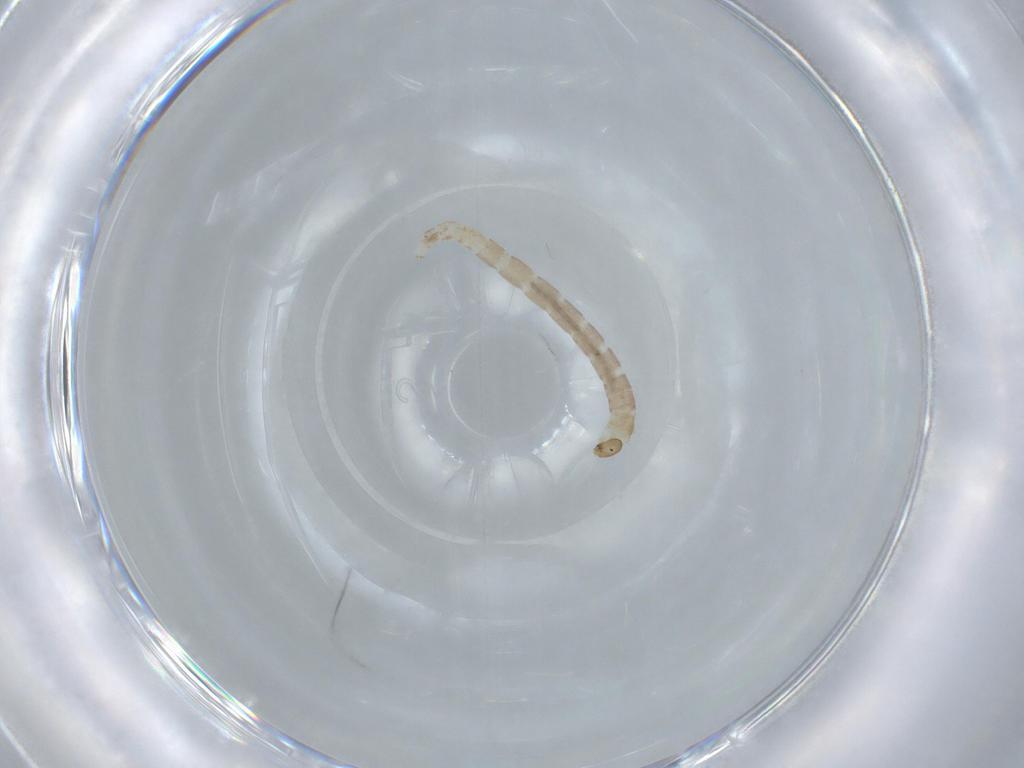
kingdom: Animalia
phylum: Arthropoda
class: Insecta
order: Diptera
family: Chironomidae
